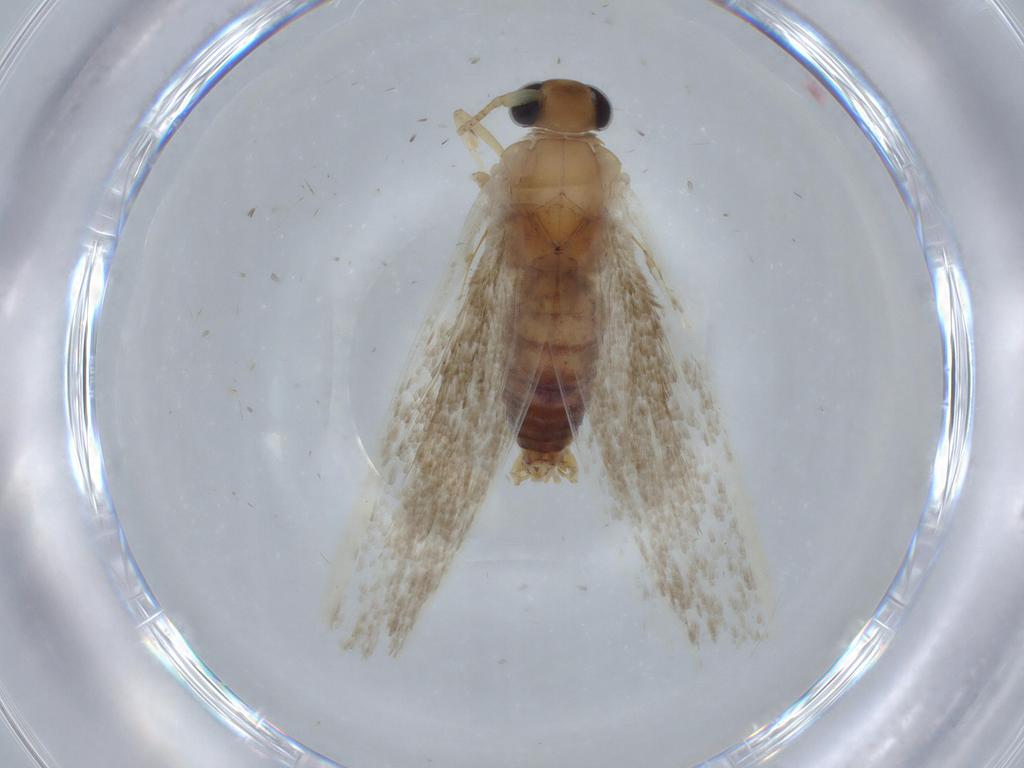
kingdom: Animalia
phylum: Arthropoda
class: Insecta
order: Lepidoptera
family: Blastobasidae
